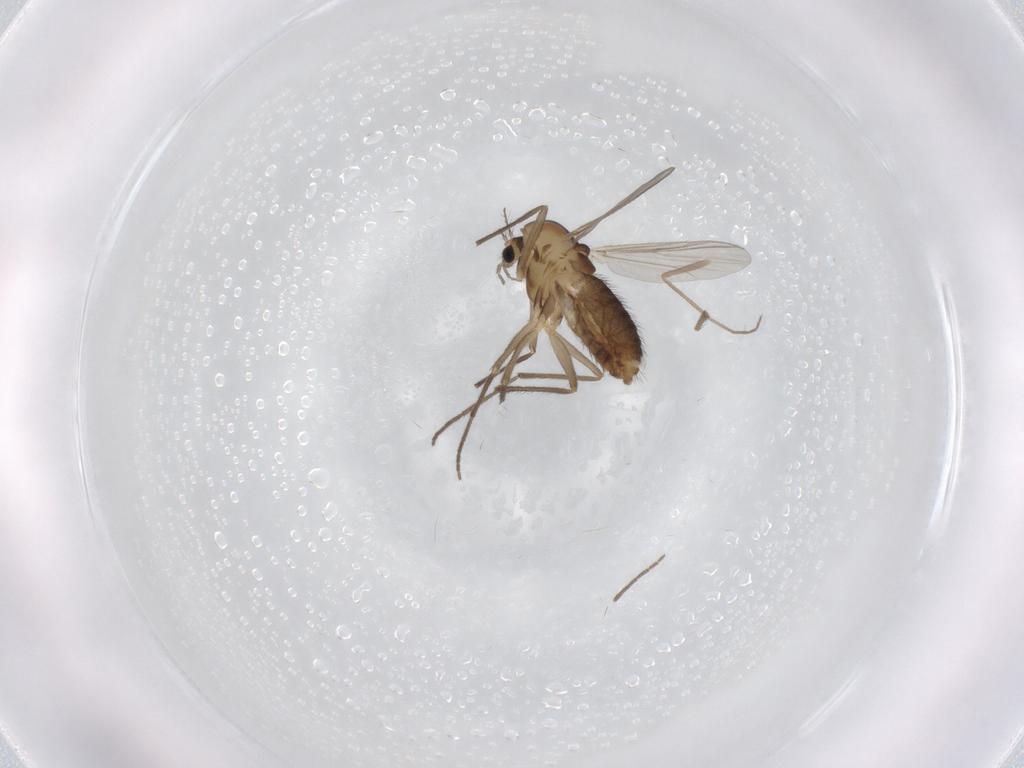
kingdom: Animalia
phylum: Arthropoda
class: Insecta
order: Diptera
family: Chironomidae
